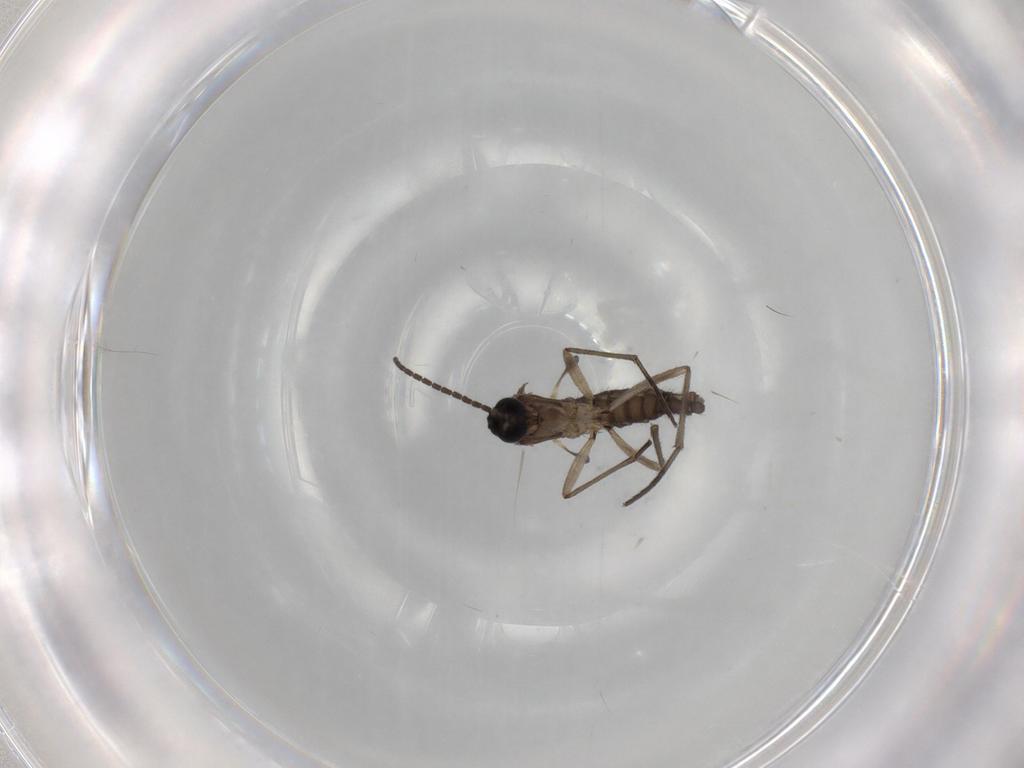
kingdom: Animalia
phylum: Arthropoda
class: Insecta
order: Diptera
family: Sciaridae
